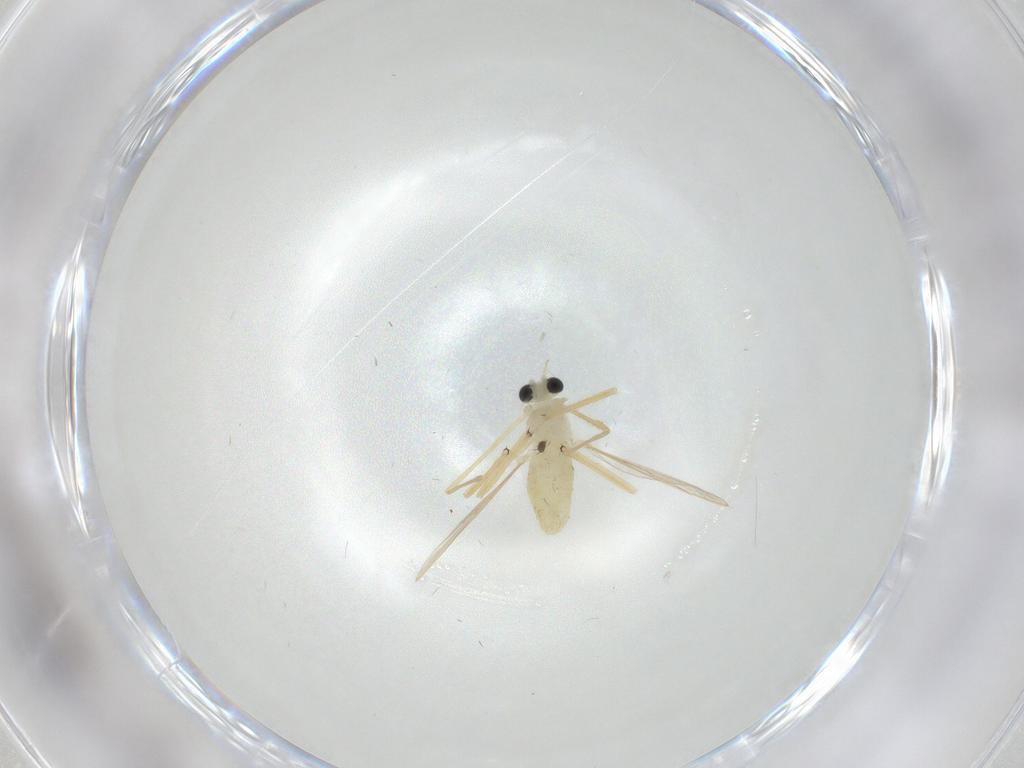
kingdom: Animalia
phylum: Arthropoda
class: Insecta
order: Diptera
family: Chironomidae
